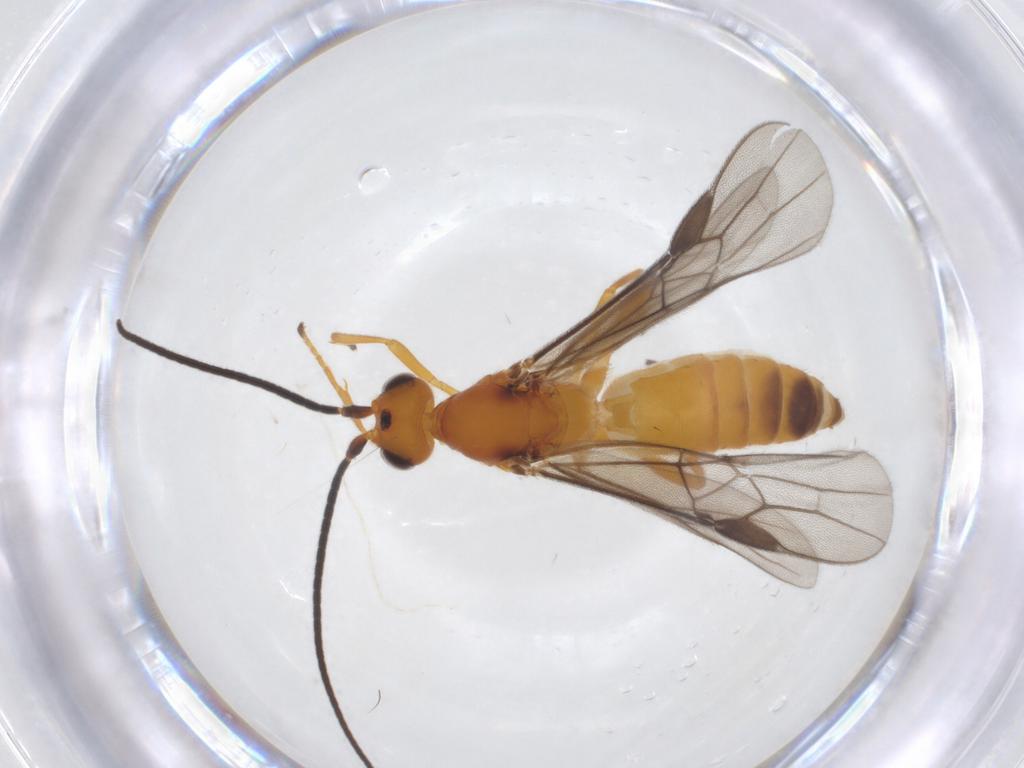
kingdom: Animalia
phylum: Arthropoda
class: Insecta
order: Hymenoptera
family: Braconidae
